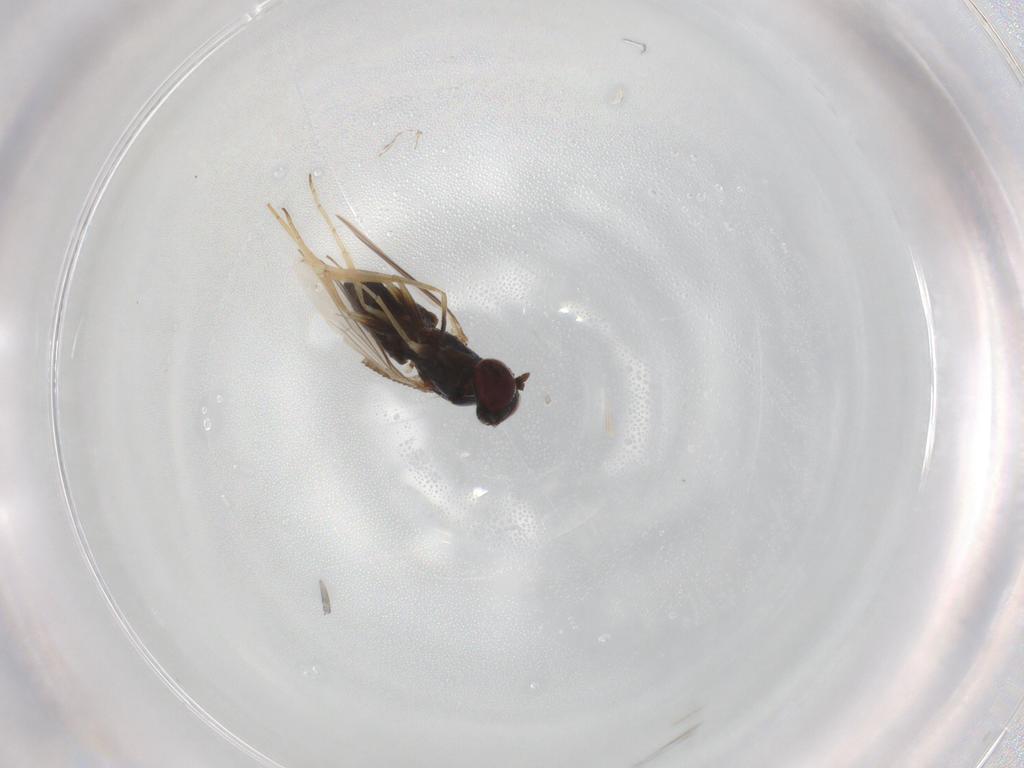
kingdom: Animalia
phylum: Arthropoda
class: Insecta
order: Diptera
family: Dolichopodidae
